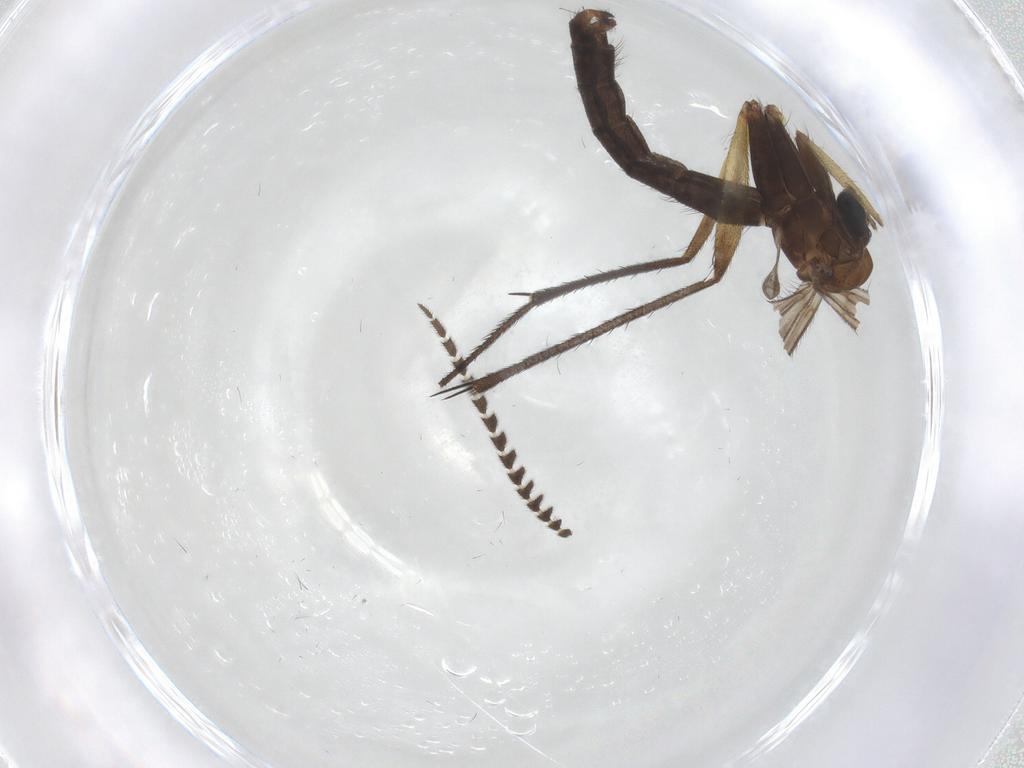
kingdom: Animalia
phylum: Arthropoda
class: Insecta
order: Diptera
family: Ditomyiidae
